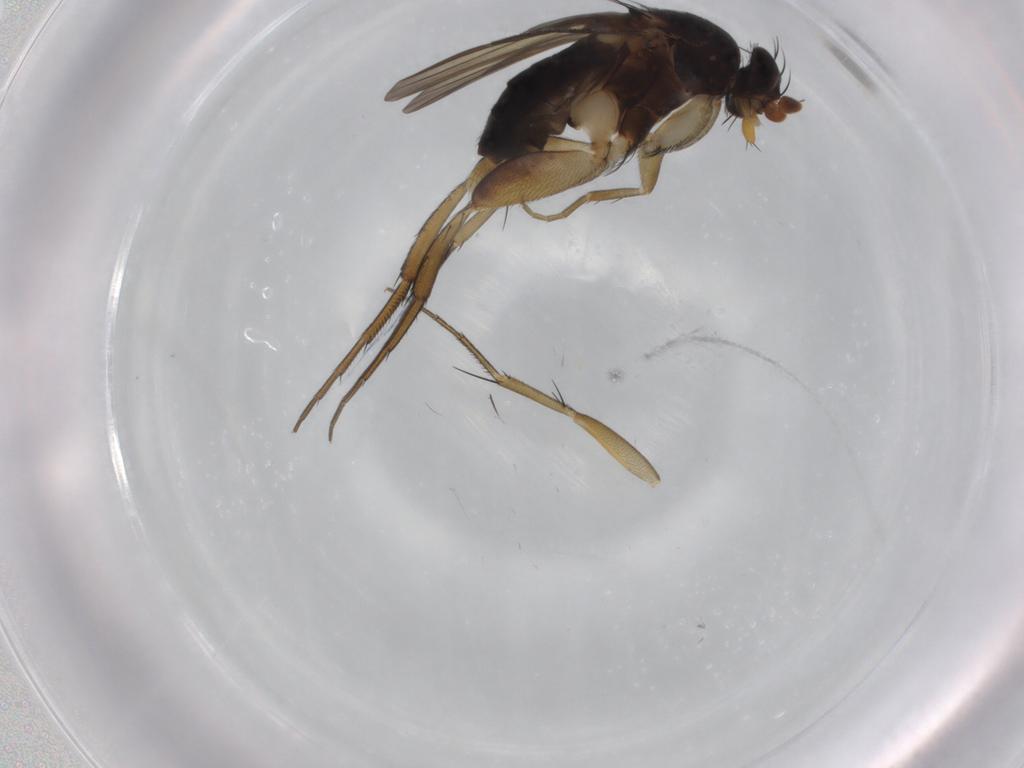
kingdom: Animalia
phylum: Arthropoda
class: Insecta
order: Diptera
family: Phoridae
